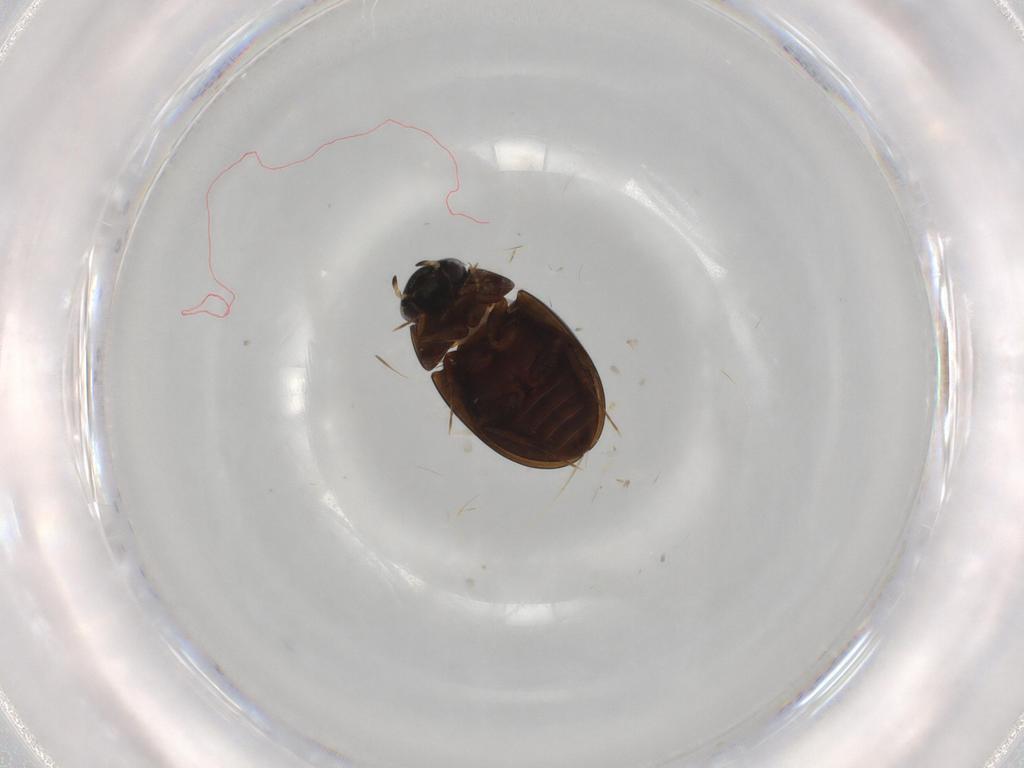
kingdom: Animalia
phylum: Arthropoda
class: Insecta
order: Coleoptera
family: Hydrophilidae
